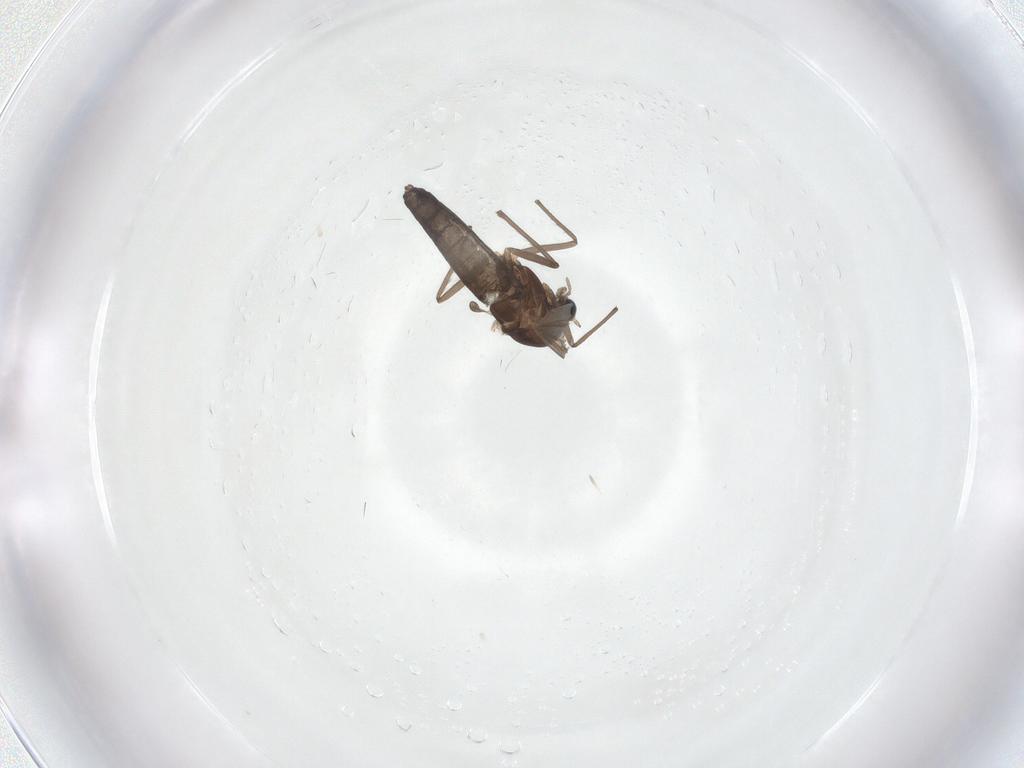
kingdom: Animalia
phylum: Arthropoda
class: Insecta
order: Diptera
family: Chironomidae
